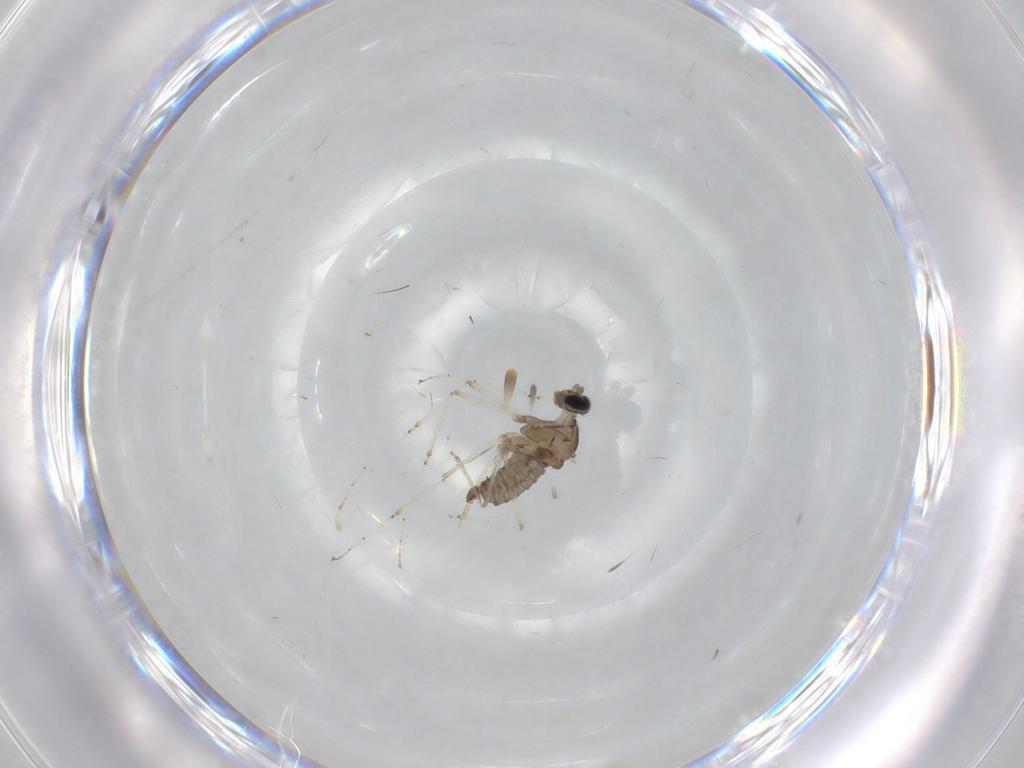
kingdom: Animalia
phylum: Arthropoda
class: Insecta
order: Diptera
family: Cecidomyiidae
